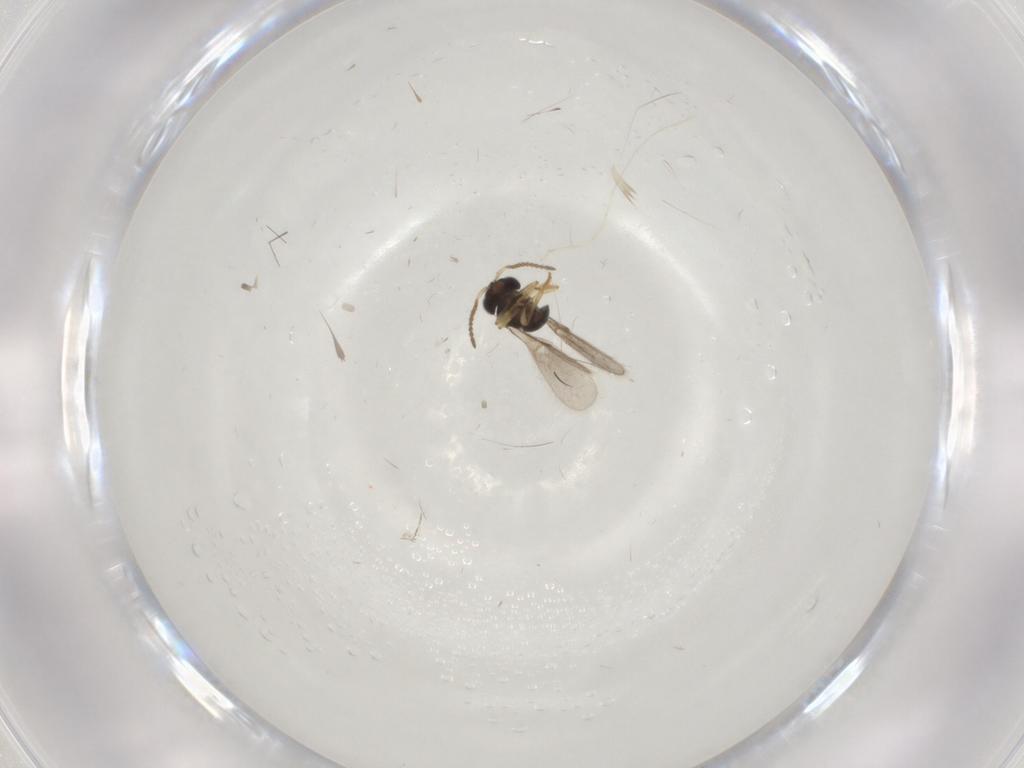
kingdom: Animalia
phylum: Arthropoda
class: Insecta
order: Hymenoptera
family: Scelionidae
